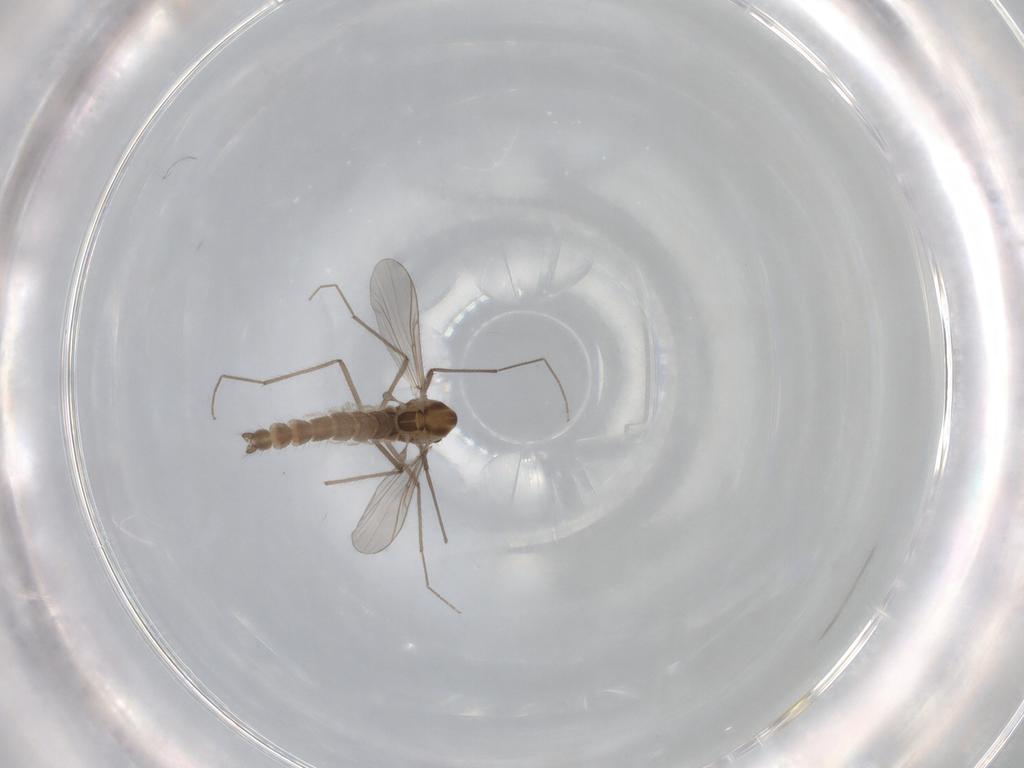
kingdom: Animalia
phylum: Arthropoda
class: Insecta
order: Diptera
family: Chironomidae
